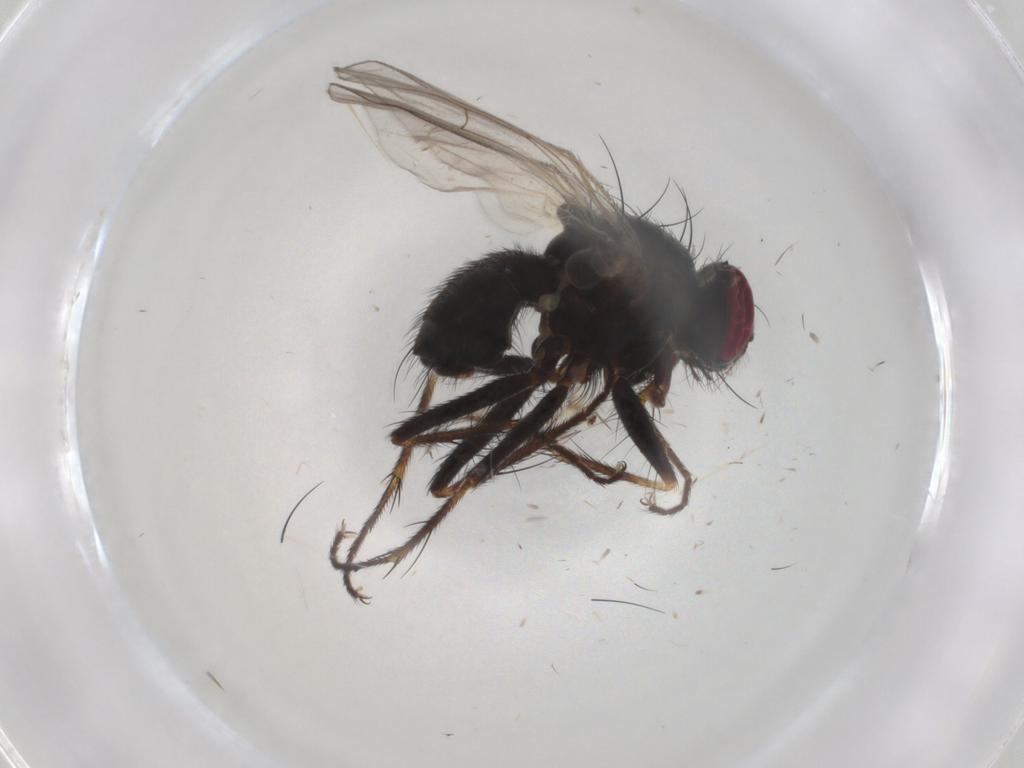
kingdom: Animalia
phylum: Arthropoda
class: Insecta
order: Diptera
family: Muscidae
